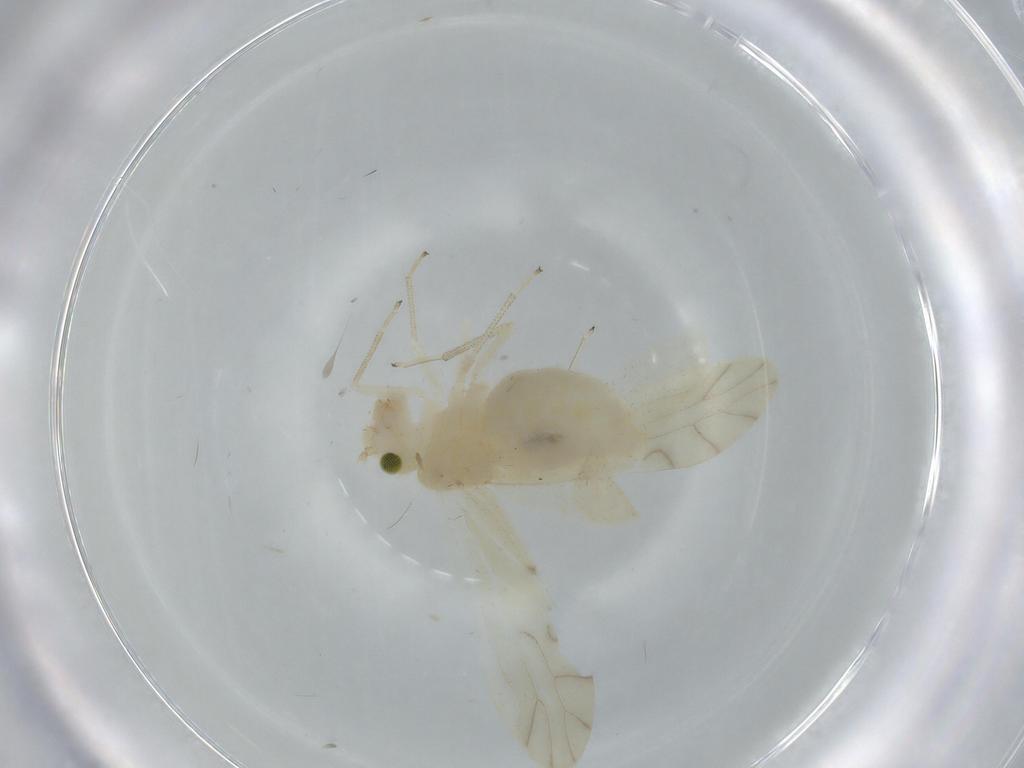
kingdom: Animalia
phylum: Arthropoda
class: Insecta
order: Psocodea
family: Caeciliusidae
